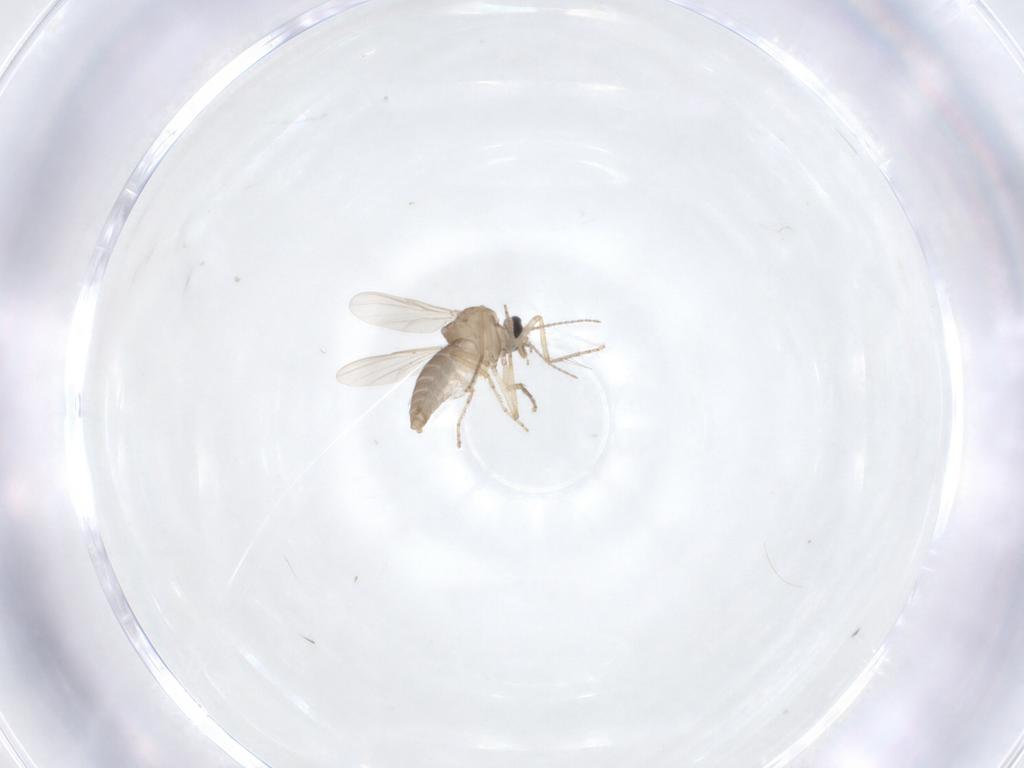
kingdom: Animalia
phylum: Arthropoda
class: Insecta
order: Diptera
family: Ceratopogonidae
